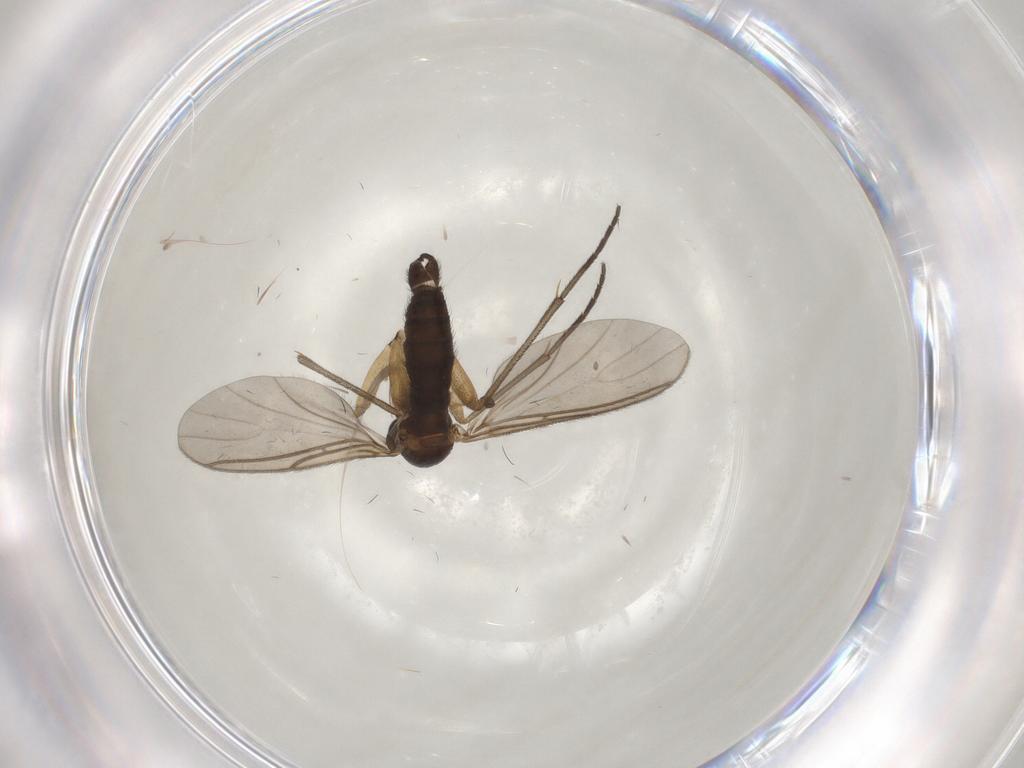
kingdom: Animalia
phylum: Arthropoda
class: Insecta
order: Diptera
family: Sciaridae
